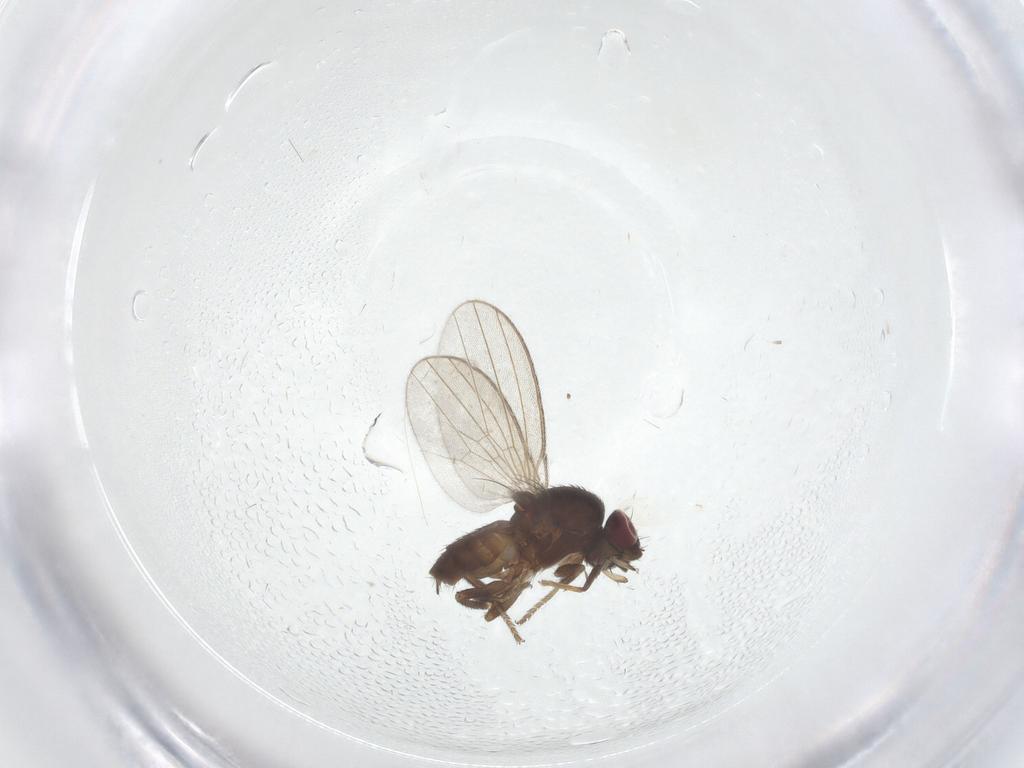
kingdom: Animalia
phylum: Arthropoda
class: Insecta
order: Diptera
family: Milichiidae
